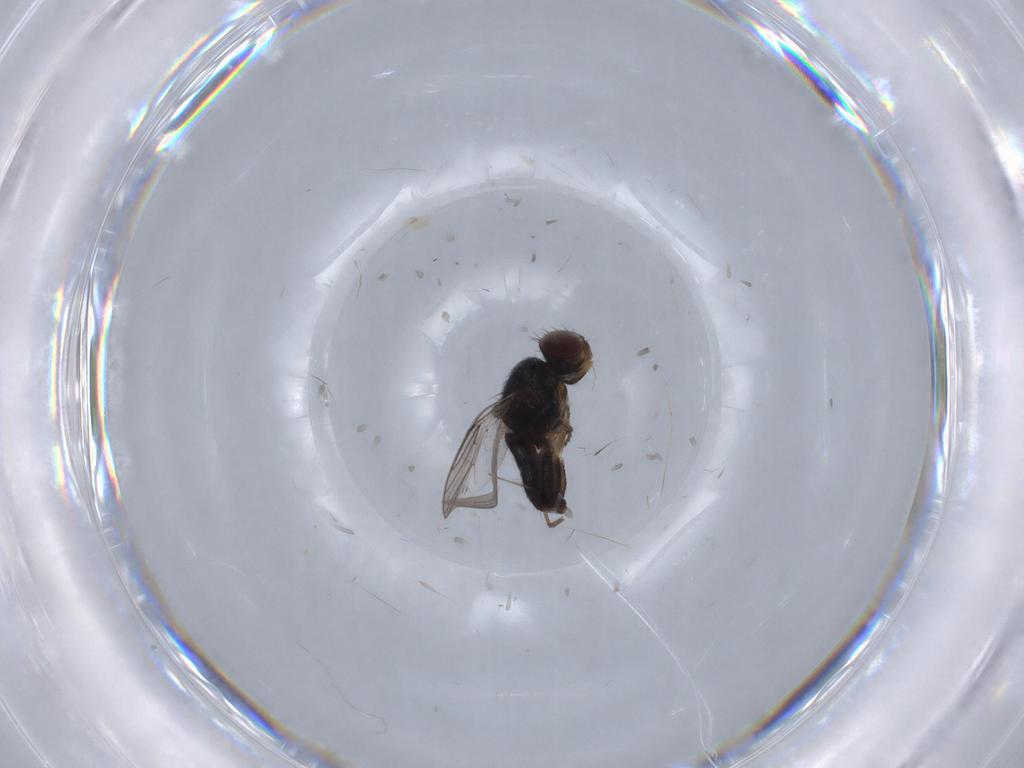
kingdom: Animalia
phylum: Arthropoda
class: Insecta
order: Diptera
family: Chloropidae
